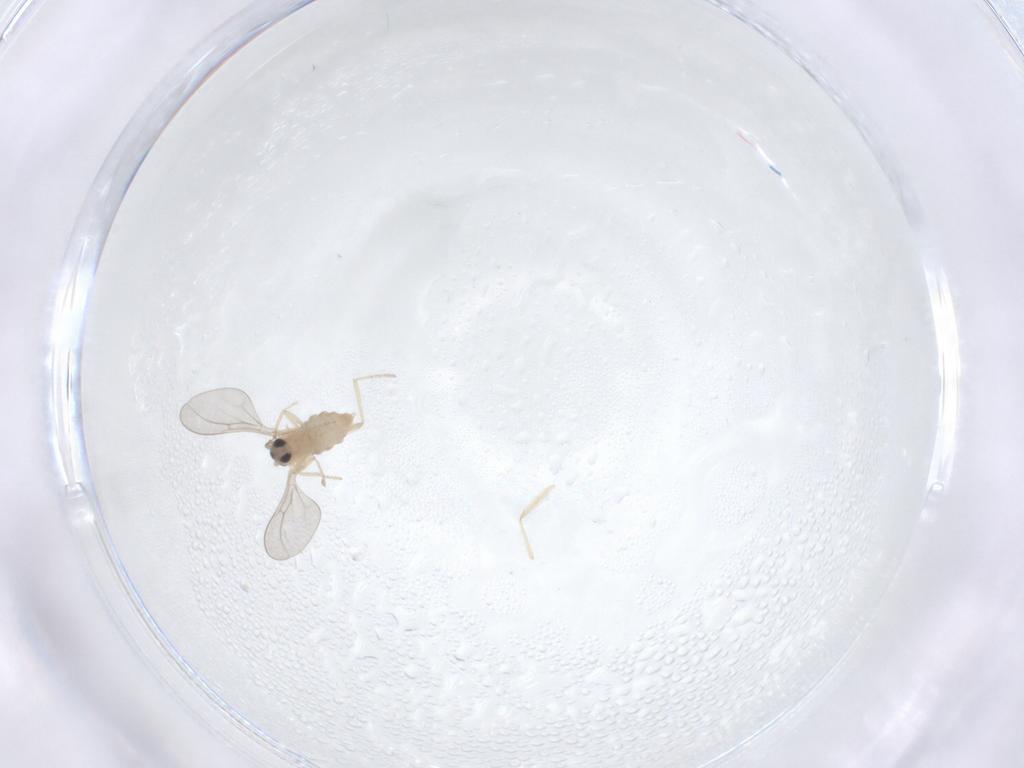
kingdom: Animalia
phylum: Arthropoda
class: Insecta
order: Diptera
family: Cecidomyiidae
